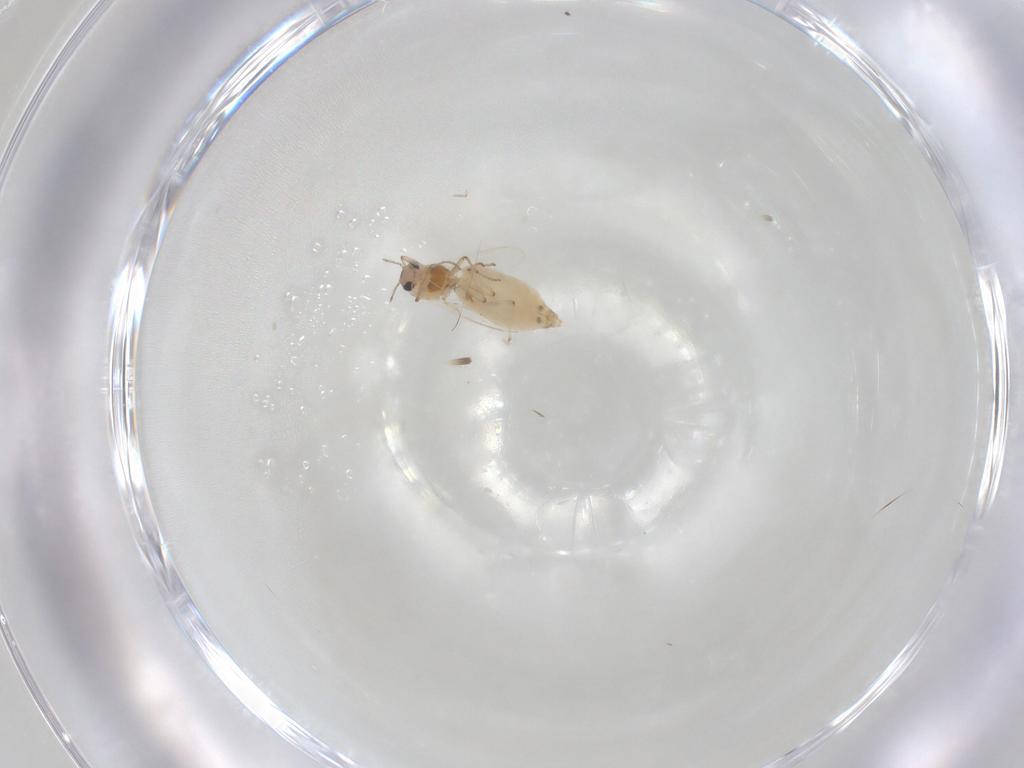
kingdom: Animalia
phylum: Arthropoda
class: Insecta
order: Diptera
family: Chironomidae
